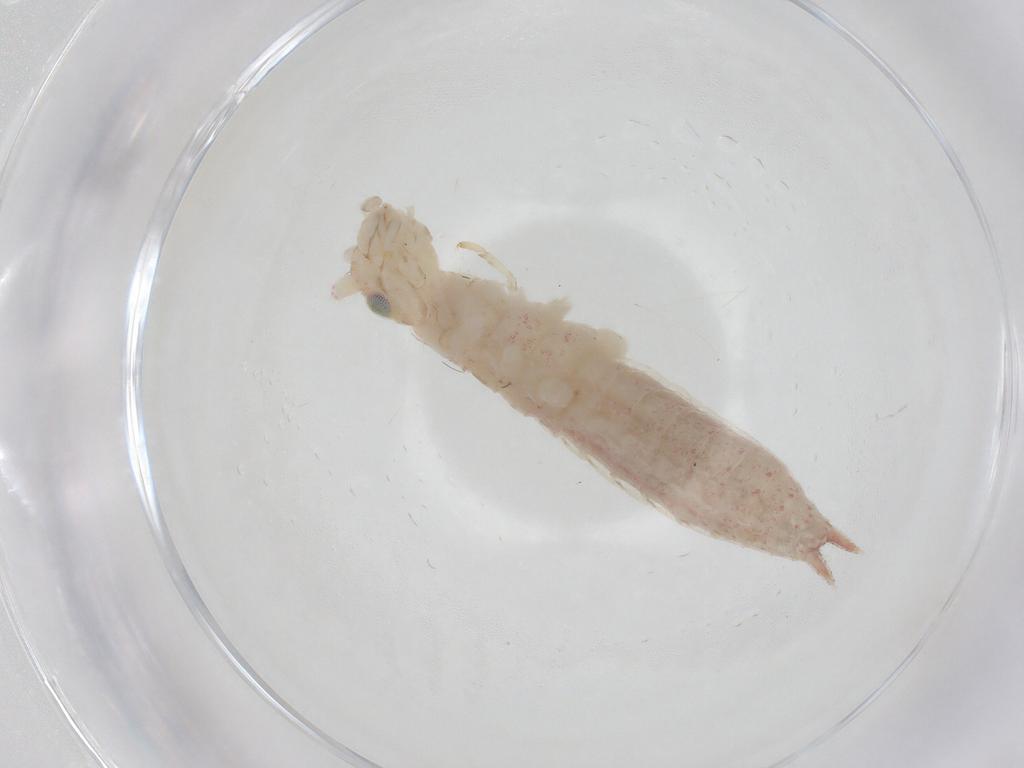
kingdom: Animalia
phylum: Arthropoda
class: Insecta
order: Orthoptera
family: Oecanthidae
